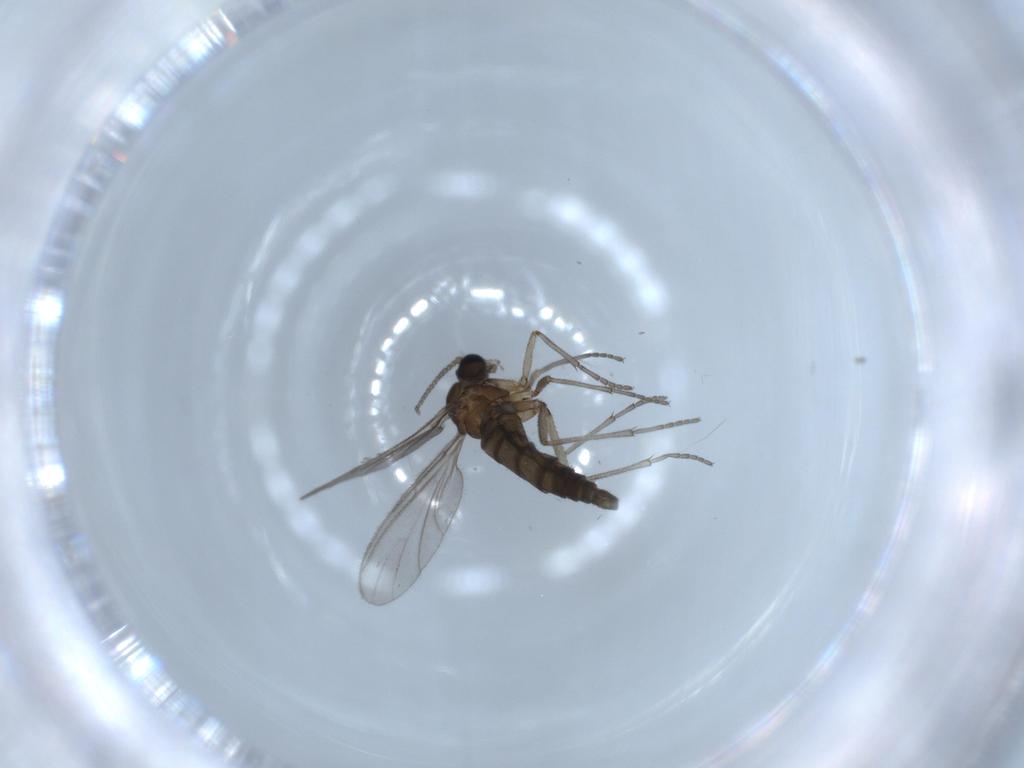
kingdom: Animalia
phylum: Arthropoda
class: Insecta
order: Diptera
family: Sciaridae
